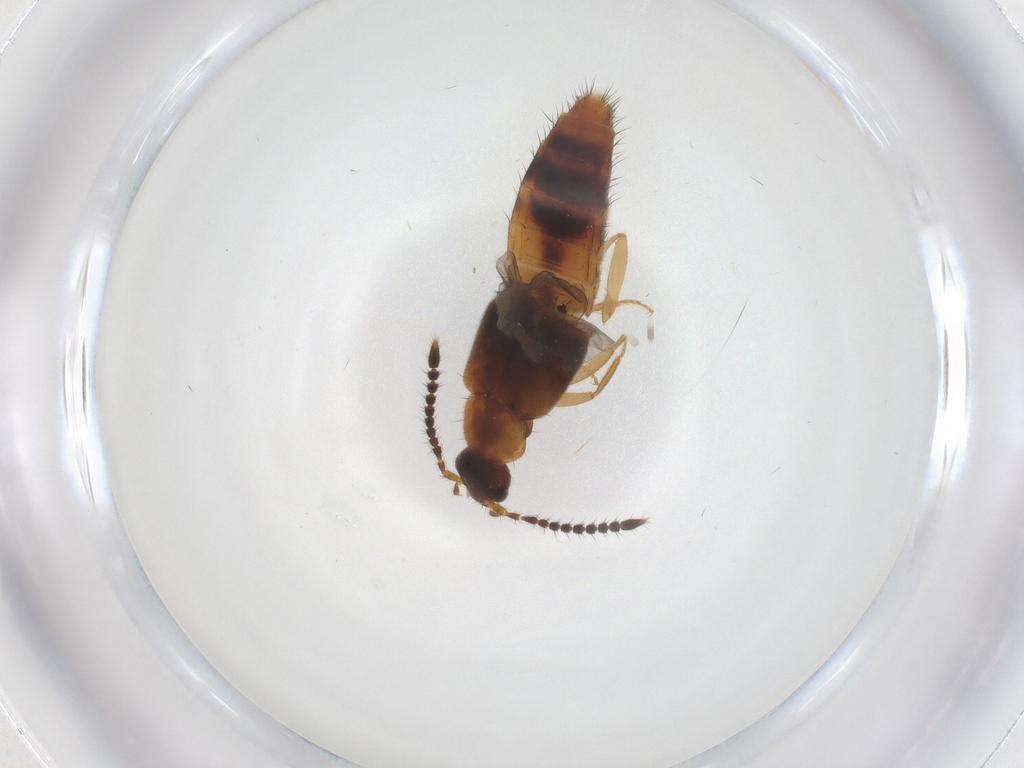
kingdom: Animalia
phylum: Arthropoda
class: Insecta
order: Coleoptera
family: Staphylinidae
